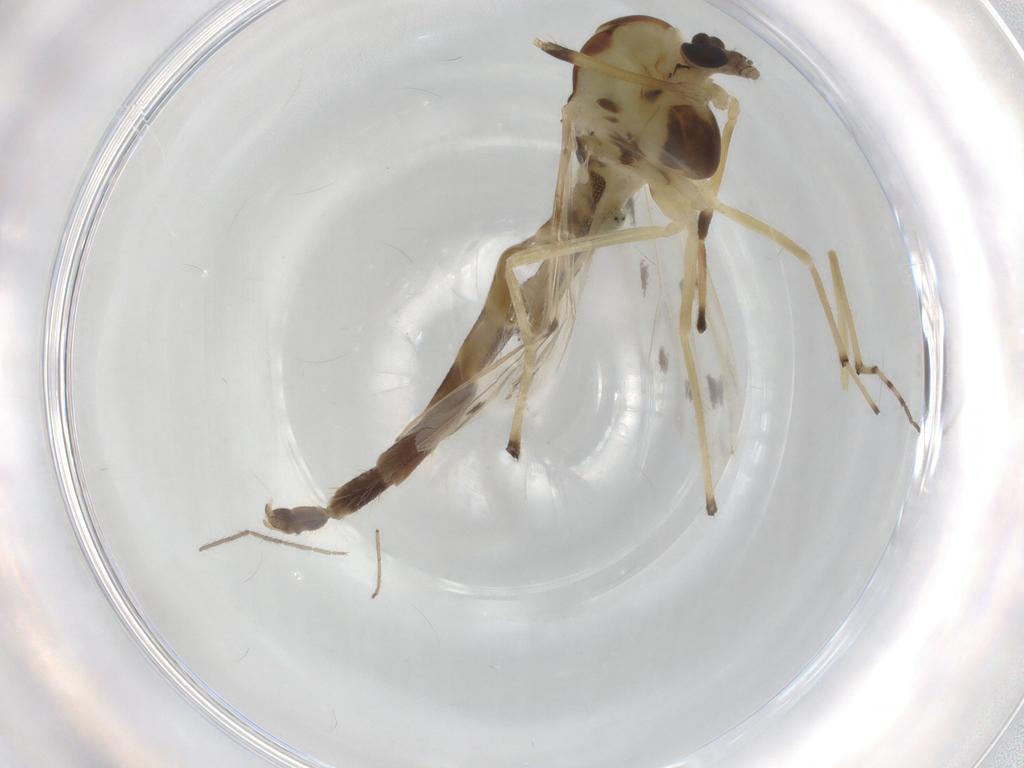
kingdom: Animalia
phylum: Arthropoda
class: Insecta
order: Diptera
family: Chironomidae
